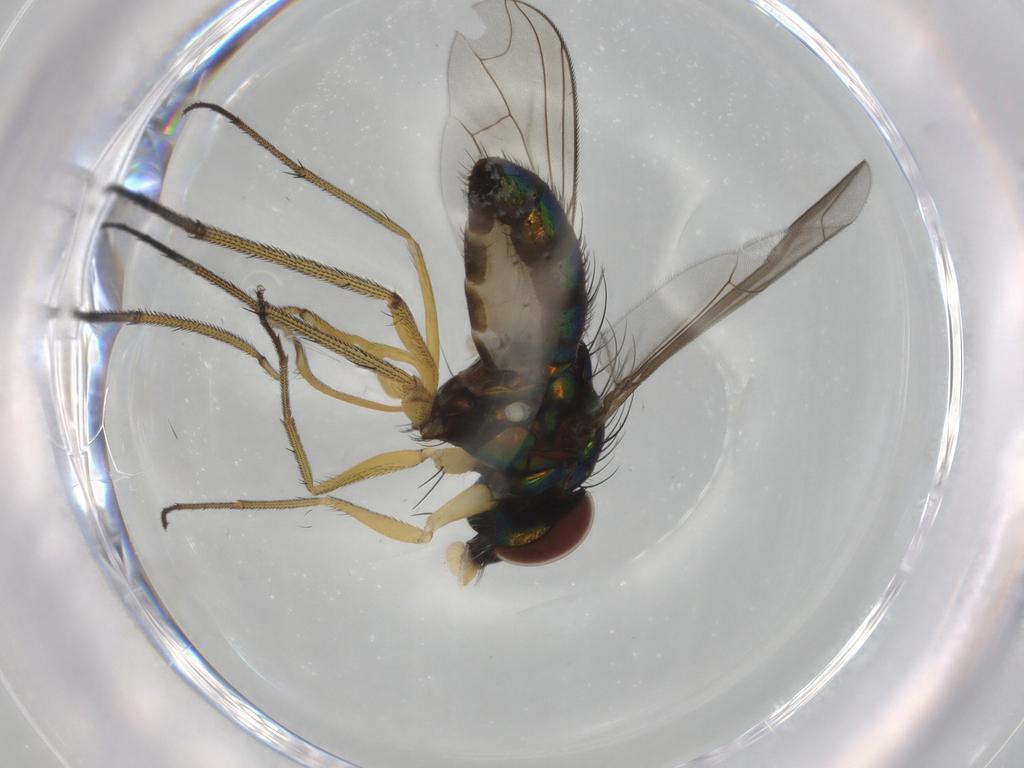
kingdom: Animalia
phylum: Arthropoda
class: Insecta
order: Diptera
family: Dolichopodidae
